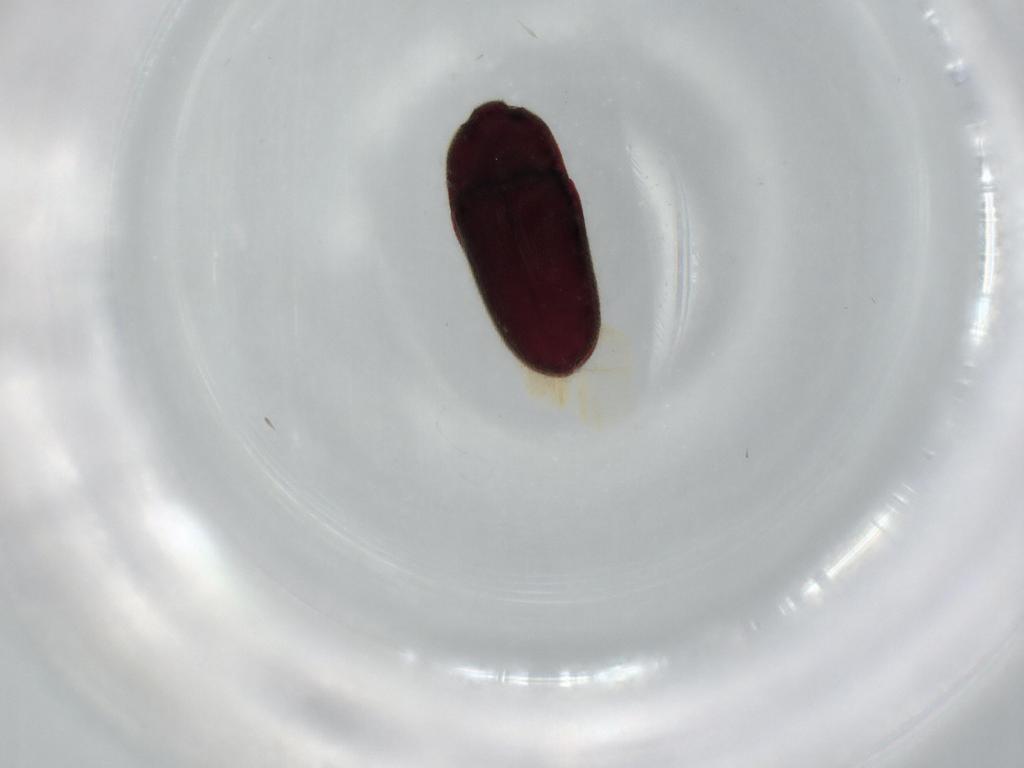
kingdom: Animalia
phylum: Arthropoda
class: Insecta
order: Coleoptera
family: Throscidae
